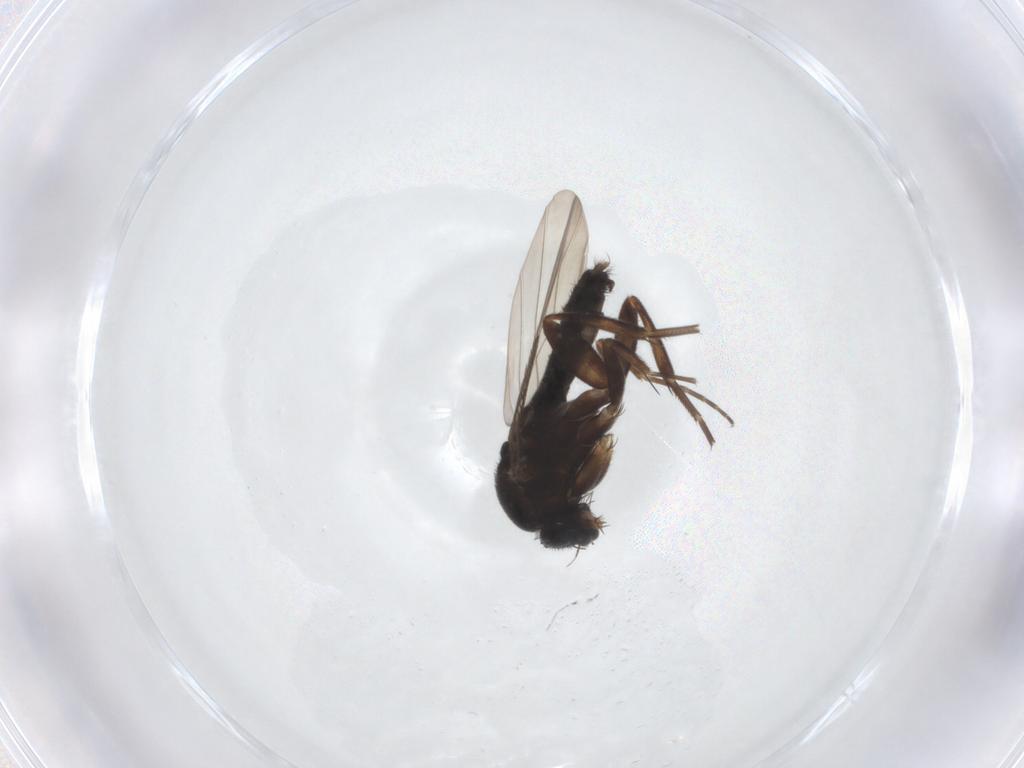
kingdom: Animalia
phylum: Arthropoda
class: Insecta
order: Diptera
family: Phoridae
